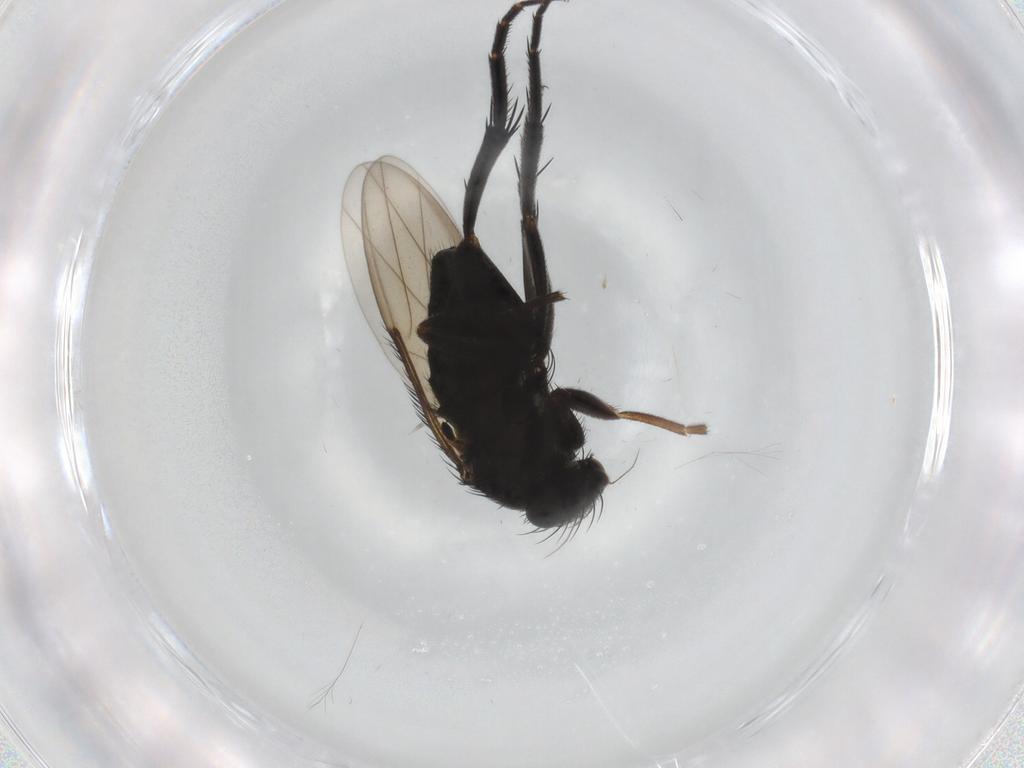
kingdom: Animalia
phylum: Arthropoda
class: Insecta
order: Diptera
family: Phoridae
